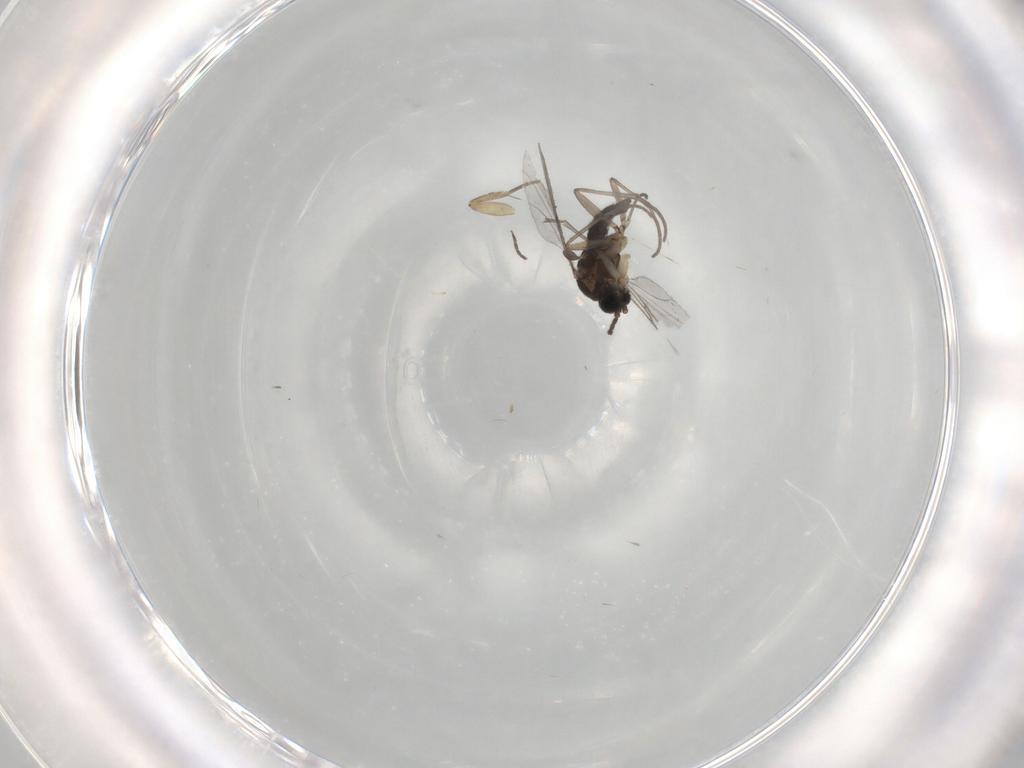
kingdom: Animalia
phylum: Arthropoda
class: Insecta
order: Diptera
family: Sciaridae
